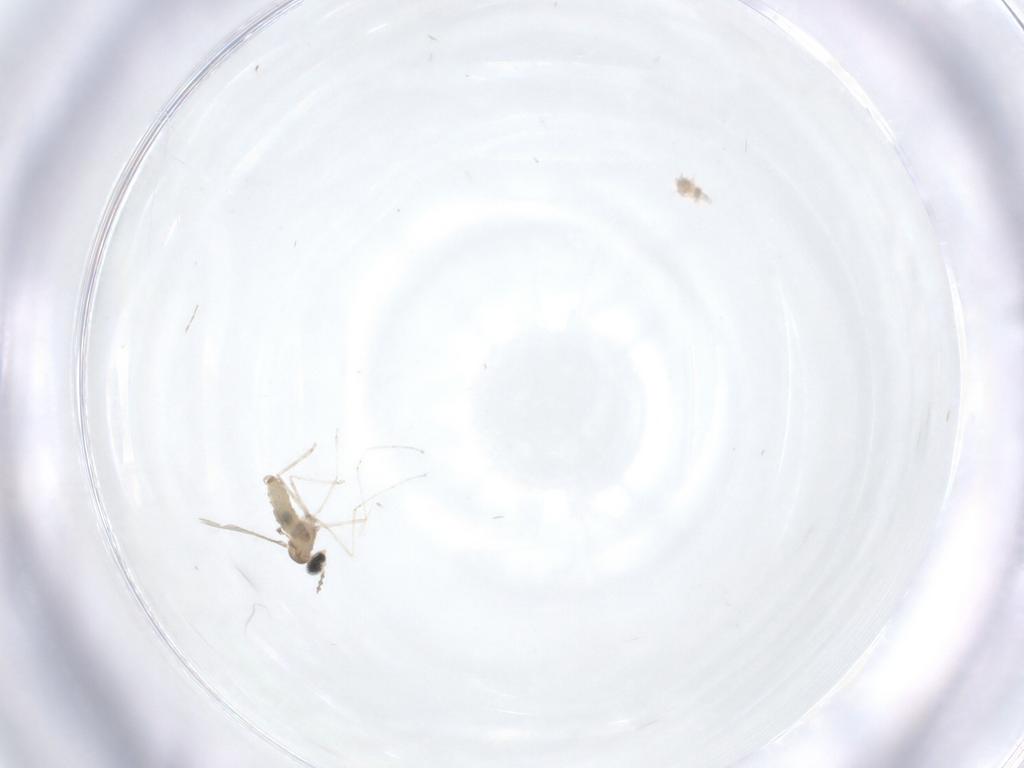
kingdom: Animalia
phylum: Arthropoda
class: Insecta
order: Diptera
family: Cecidomyiidae
